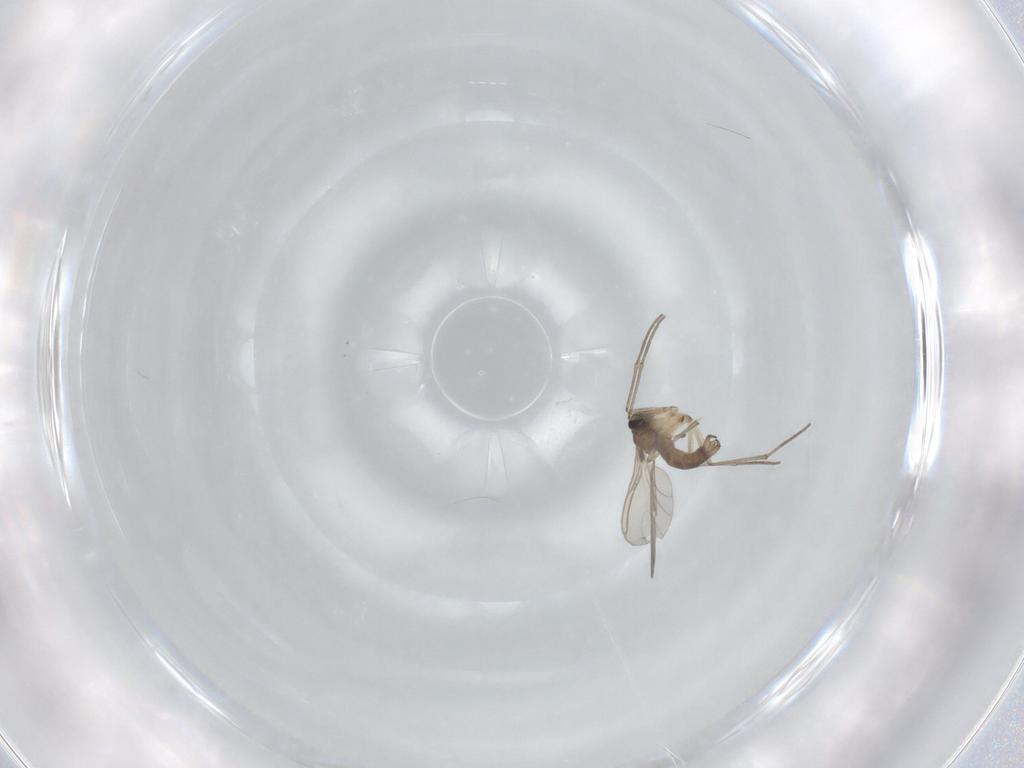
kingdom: Animalia
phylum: Arthropoda
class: Insecta
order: Diptera
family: Sciaridae
